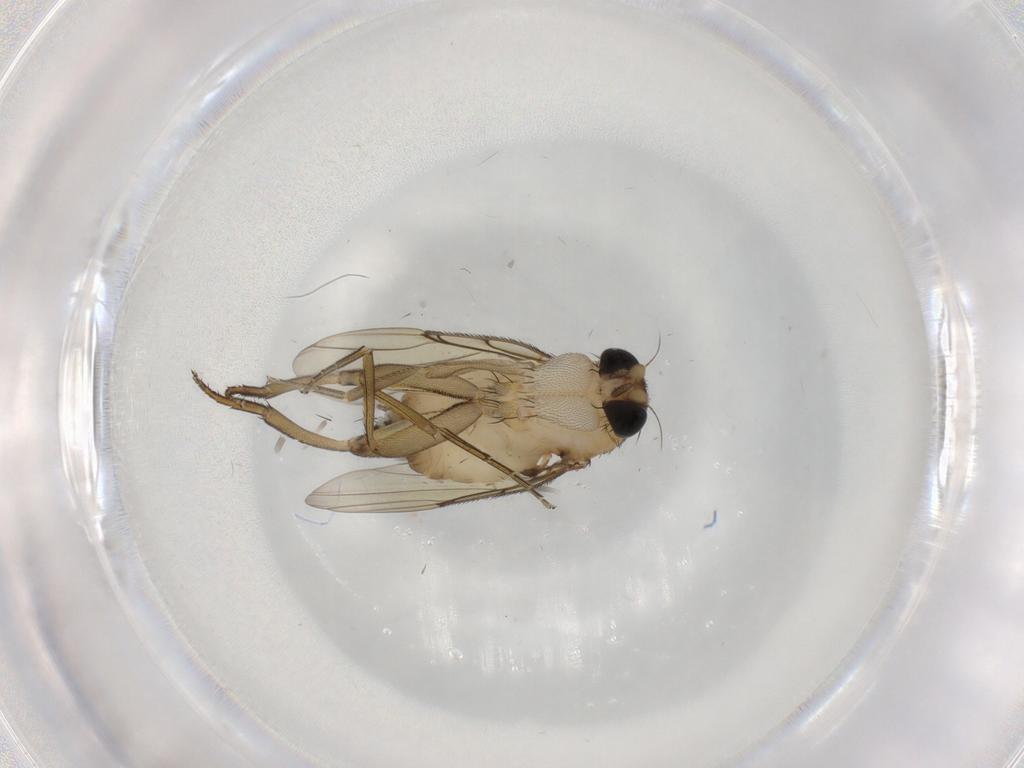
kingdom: Animalia
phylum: Arthropoda
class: Insecta
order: Diptera
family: Phoridae
